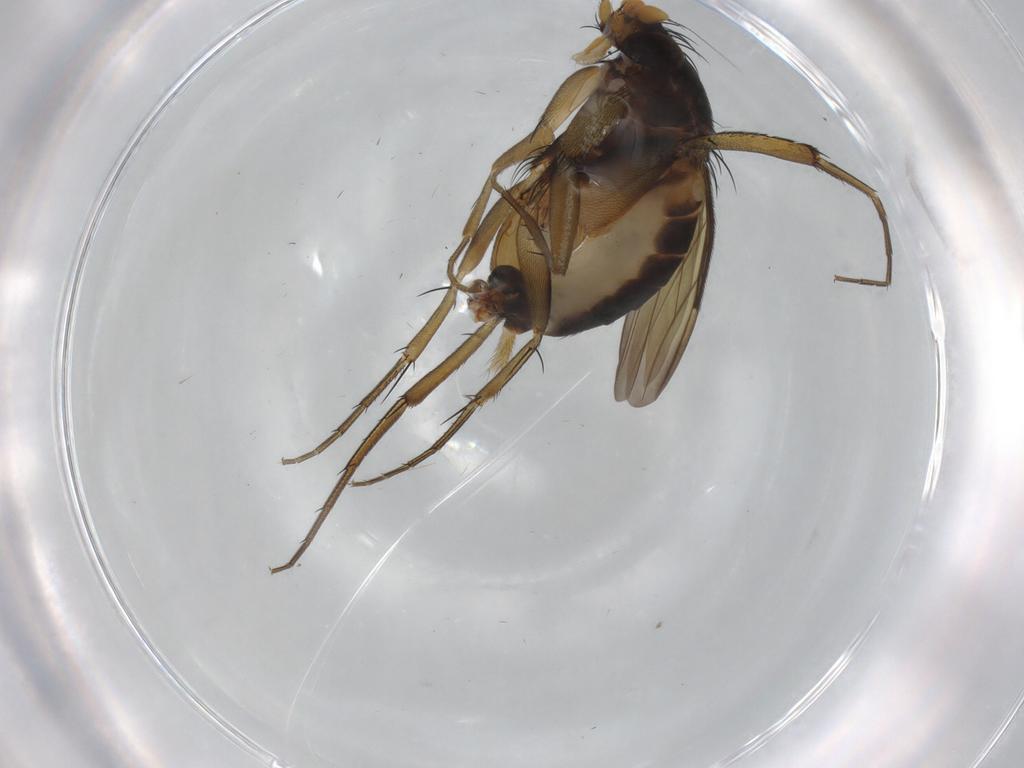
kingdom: Animalia
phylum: Arthropoda
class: Insecta
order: Diptera
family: Phoridae
